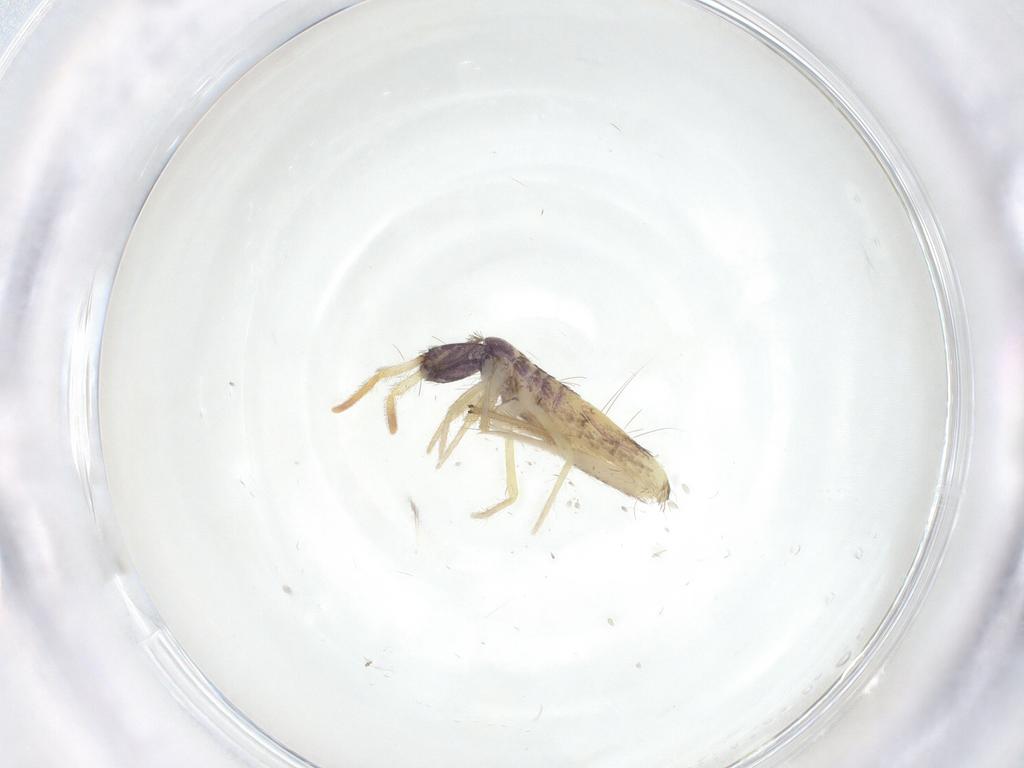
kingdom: Animalia
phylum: Arthropoda
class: Collembola
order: Entomobryomorpha
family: Entomobryidae
